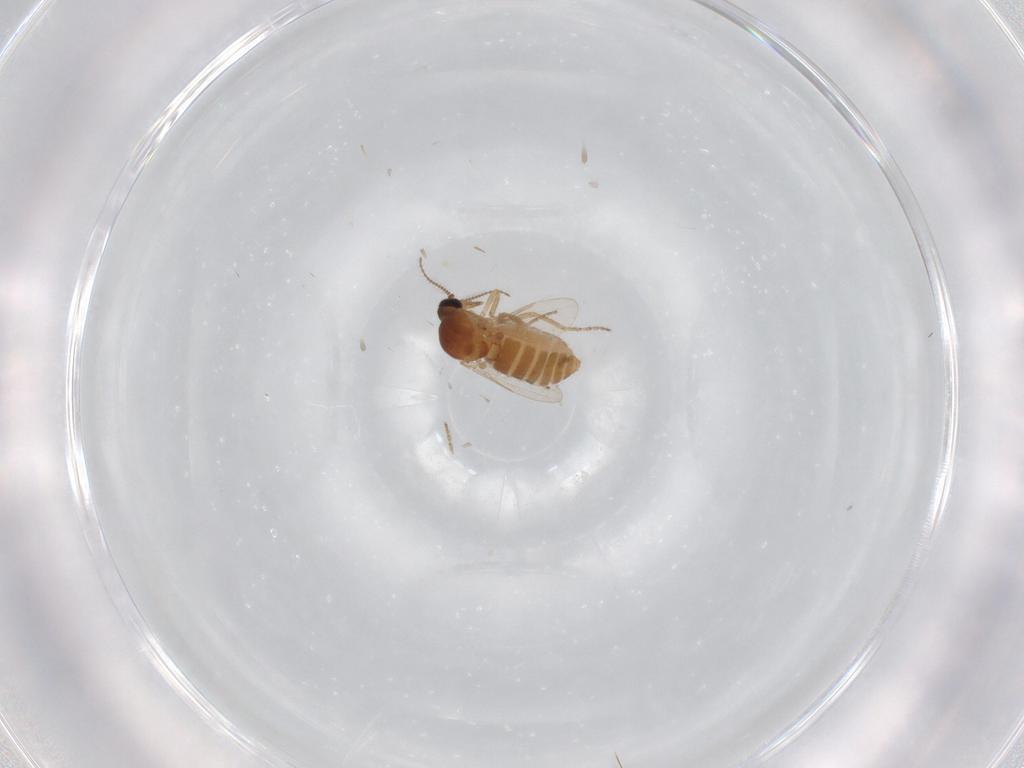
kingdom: Animalia
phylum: Arthropoda
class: Insecta
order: Diptera
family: Ceratopogonidae
